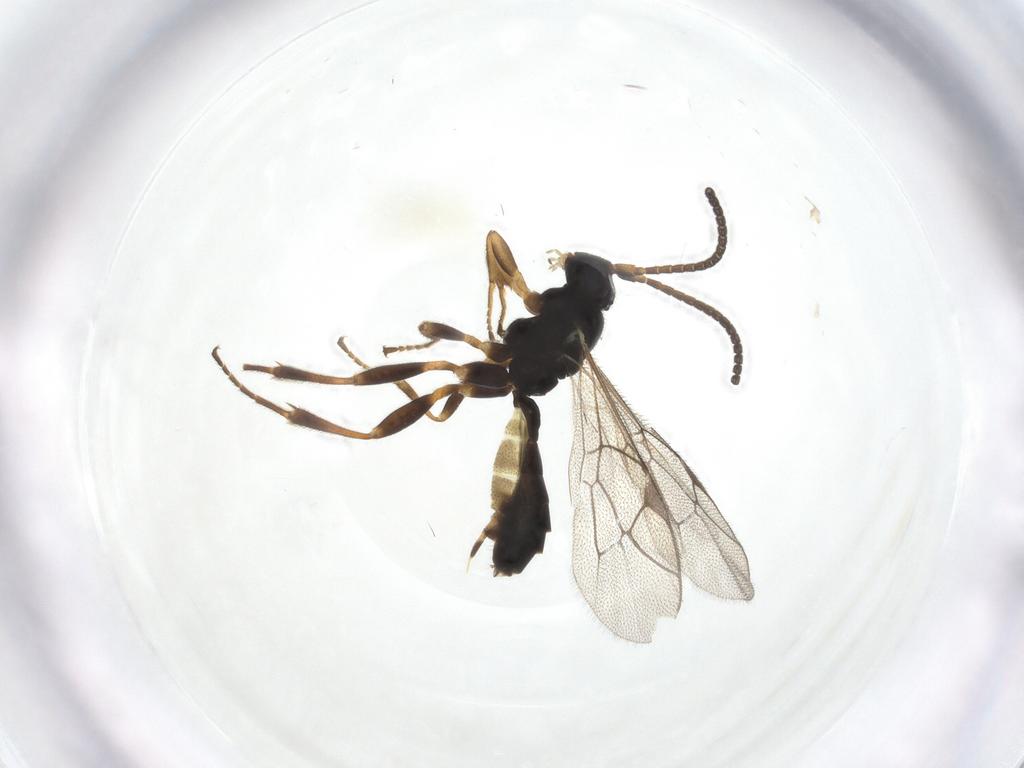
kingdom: Animalia
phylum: Arthropoda
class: Insecta
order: Hymenoptera
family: Ichneumonidae
